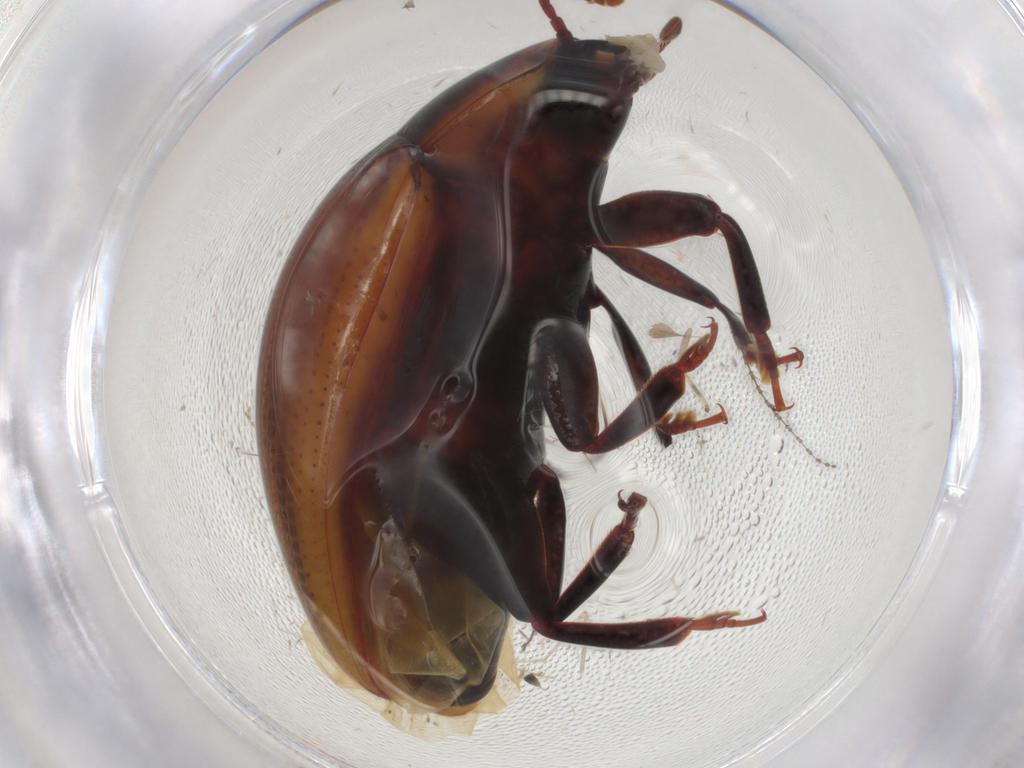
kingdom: Animalia
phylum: Arthropoda
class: Insecta
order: Coleoptera
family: Zopheridae
